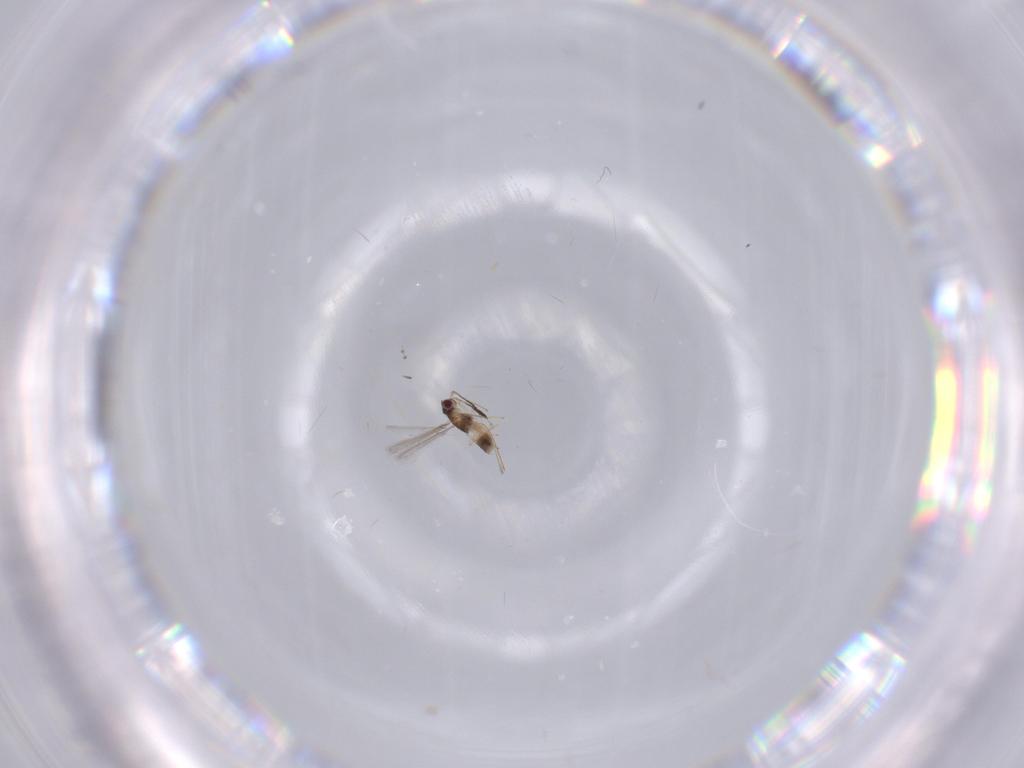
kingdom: Animalia
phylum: Arthropoda
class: Insecta
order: Hymenoptera
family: Mymaridae
